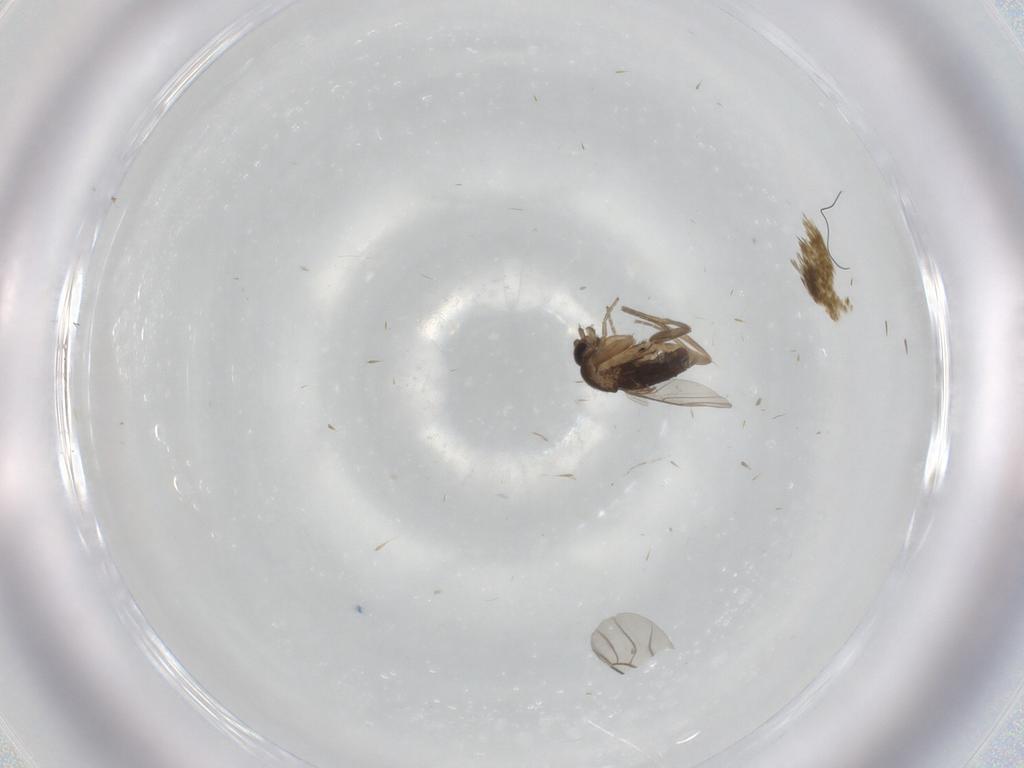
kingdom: Animalia
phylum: Arthropoda
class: Insecta
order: Diptera
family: Phoridae
